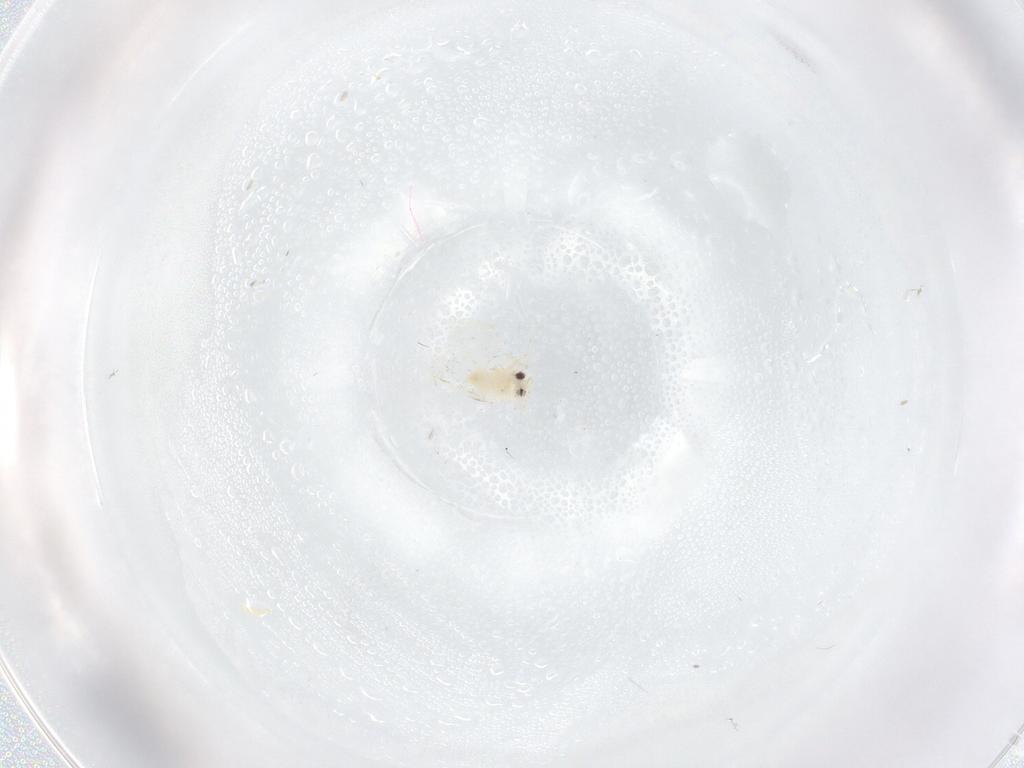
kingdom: Animalia
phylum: Arthropoda
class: Insecta
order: Hemiptera
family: Aleyrodidae
